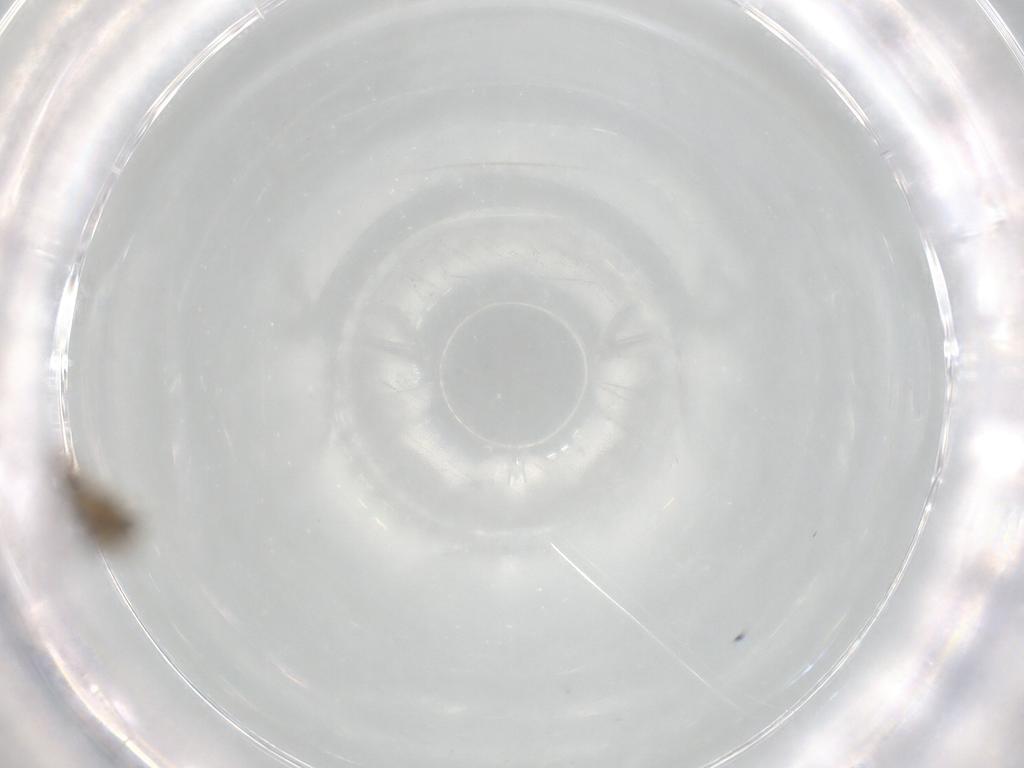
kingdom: Animalia
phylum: Arthropoda
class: Insecta
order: Diptera
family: Chironomidae
